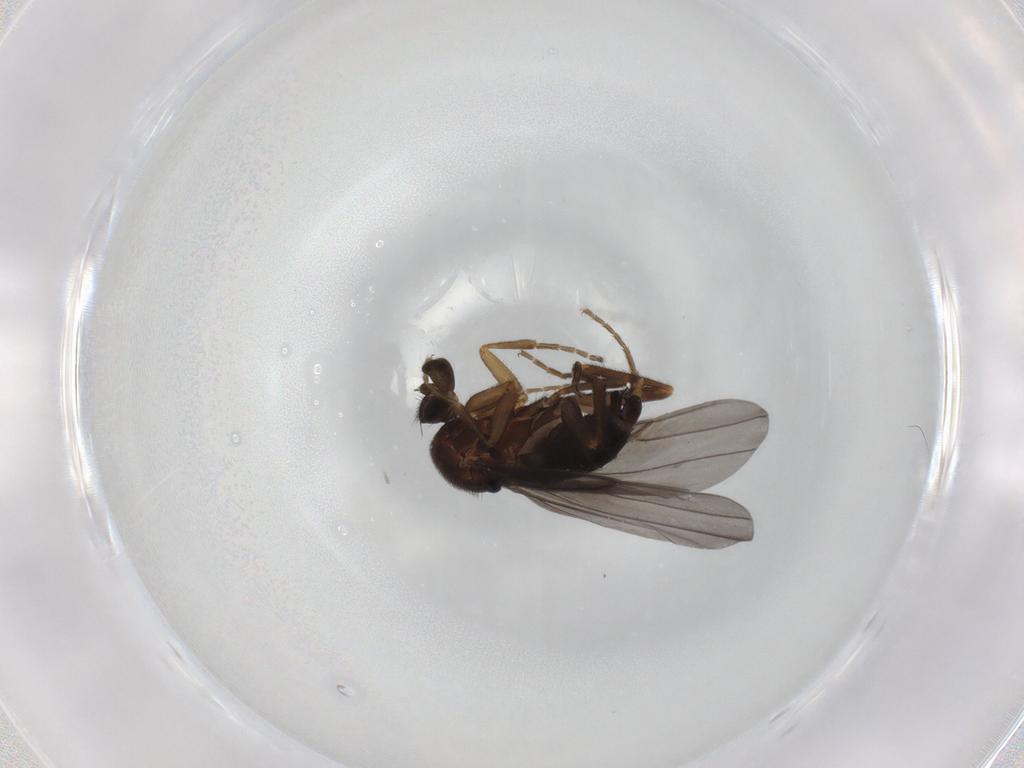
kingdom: Animalia
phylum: Arthropoda
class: Insecta
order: Diptera
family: Phoridae
